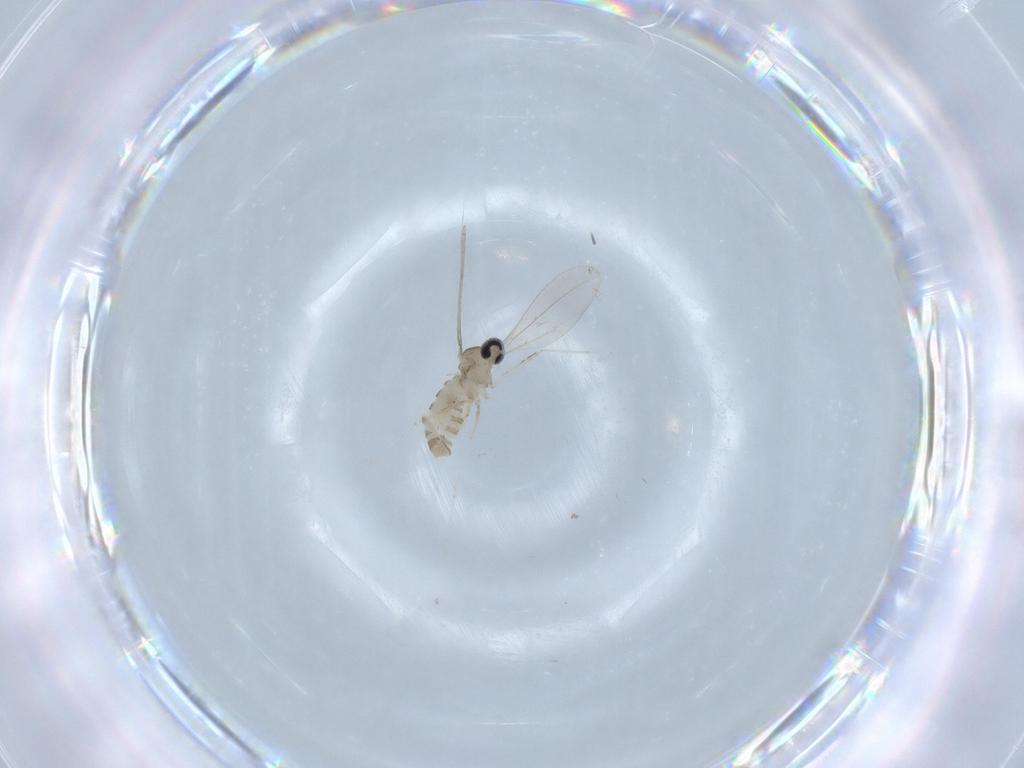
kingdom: Animalia
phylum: Arthropoda
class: Insecta
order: Diptera
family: Cecidomyiidae
